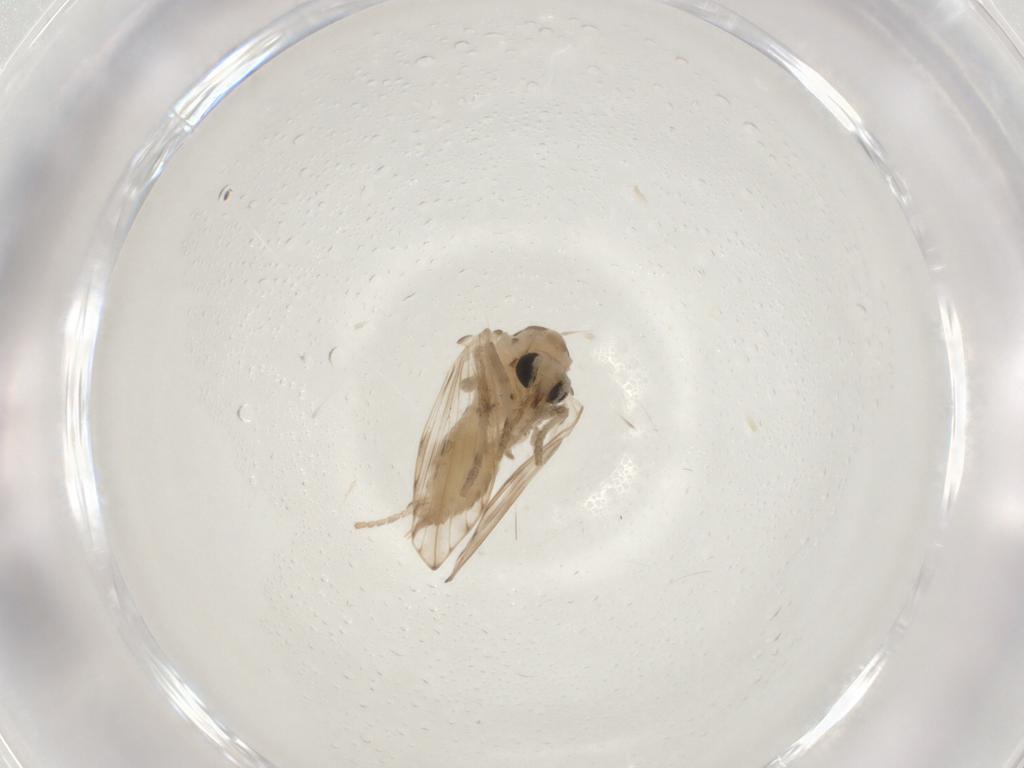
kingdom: Animalia
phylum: Arthropoda
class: Insecta
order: Diptera
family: Psychodidae
